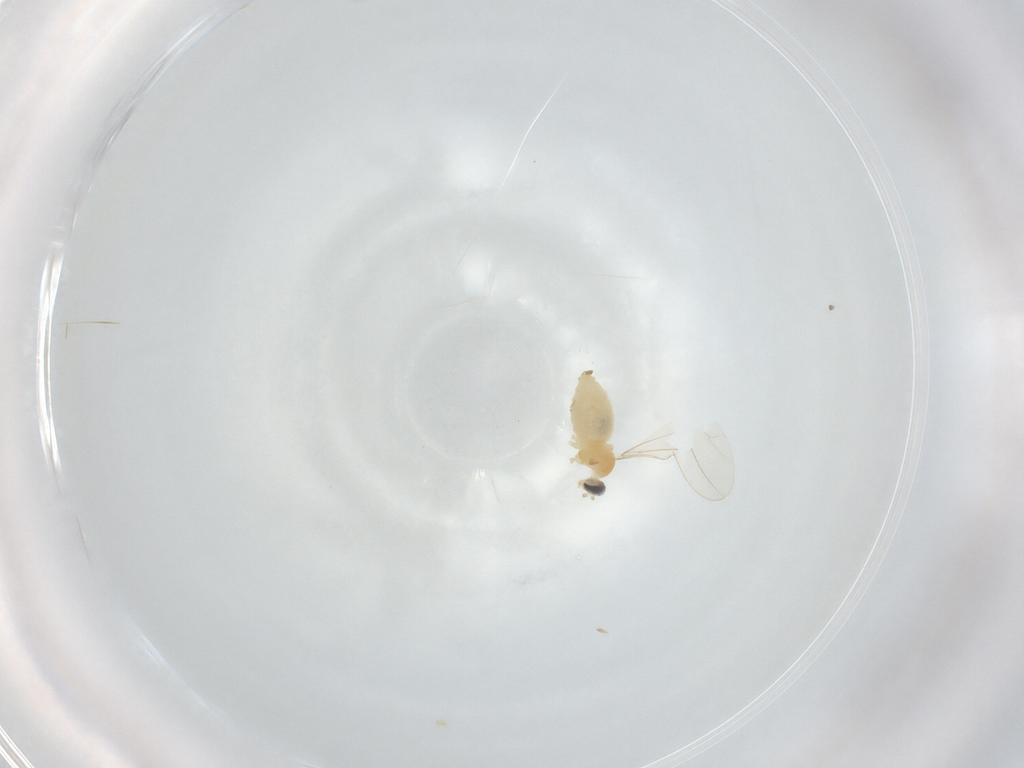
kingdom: Animalia
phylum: Arthropoda
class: Insecta
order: Diptera
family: Ceratopogonidae
